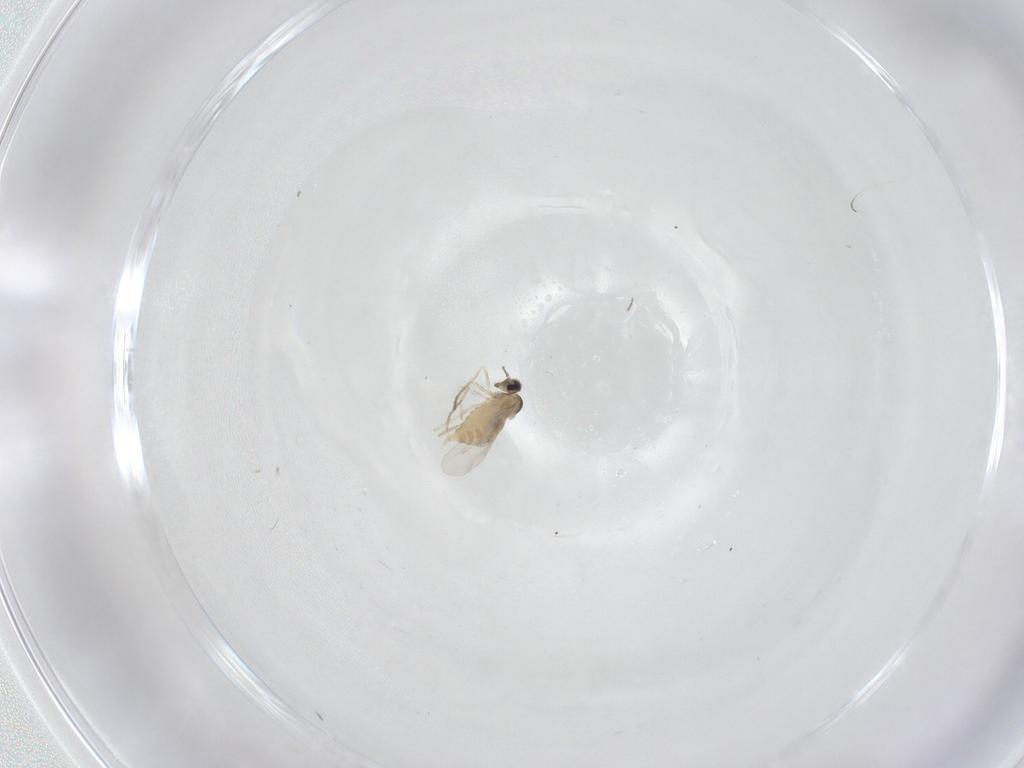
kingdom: Animalia
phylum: Arthropoda
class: Insecta
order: Diptera
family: Cecidomyiidae
